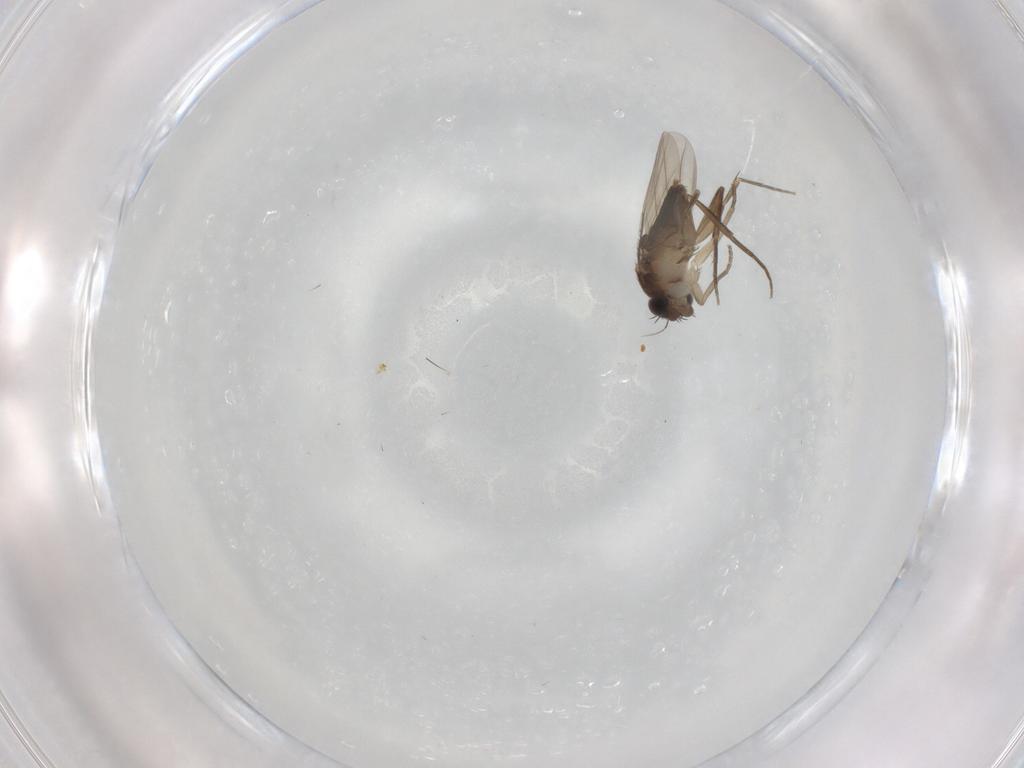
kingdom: Animalia
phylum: Arthropoda
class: Insecta
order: Diptera
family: Phoridae
